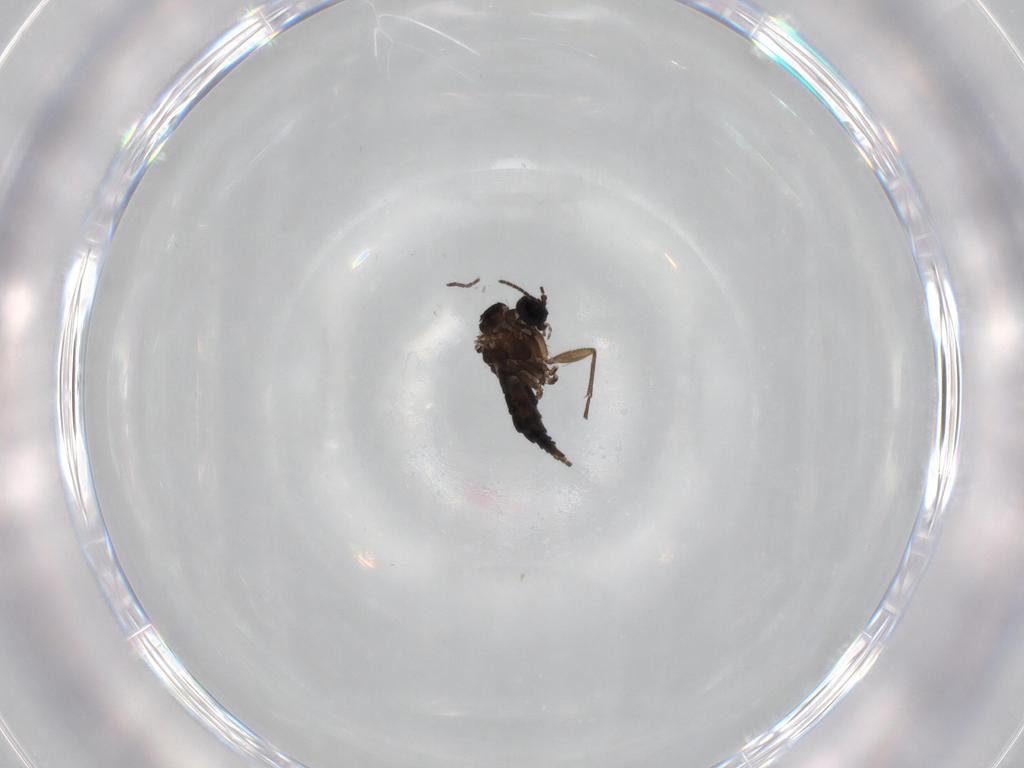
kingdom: Animalia
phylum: Arthropoda
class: Insecta
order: Diptera
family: Sciaridae
